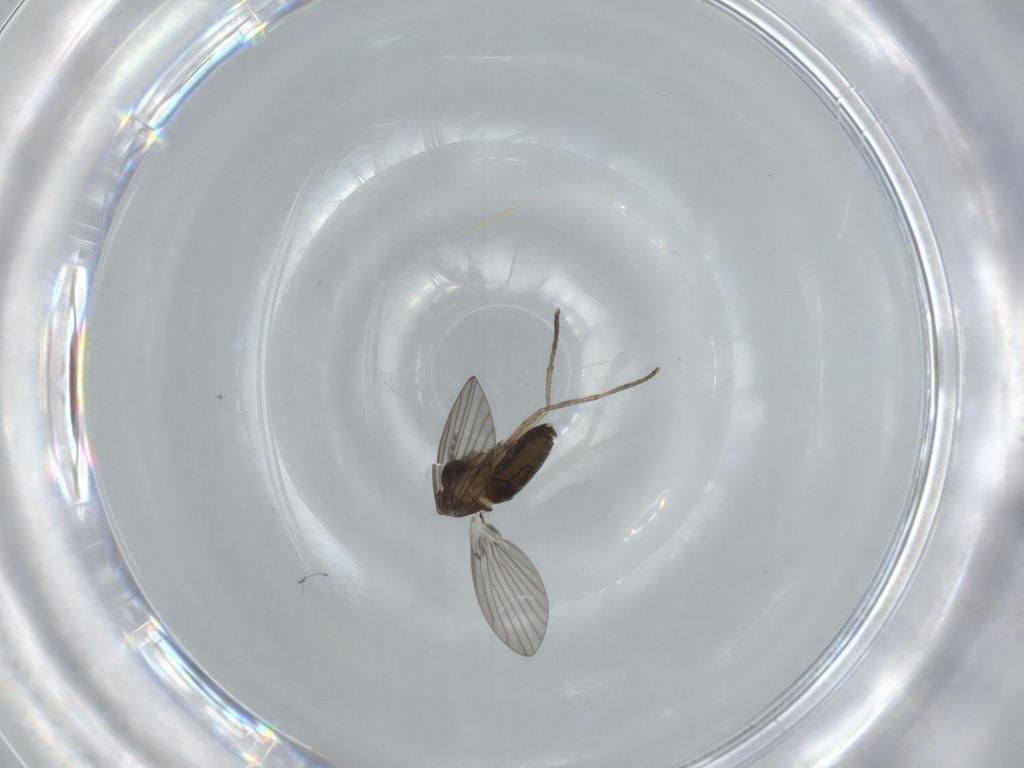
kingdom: Animalia
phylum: Arthropoda
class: Insecta
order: Diptera
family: Psychodidae
